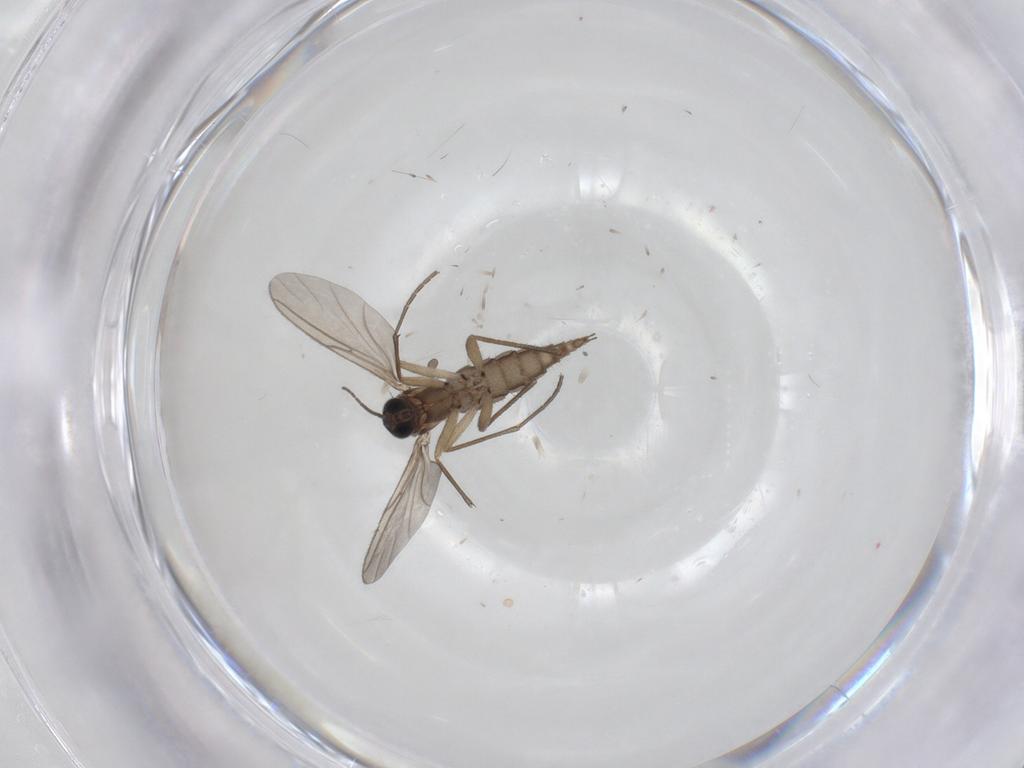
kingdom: Animalia
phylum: Arthropoda
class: Insecta
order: Diptera
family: Sciaridae
